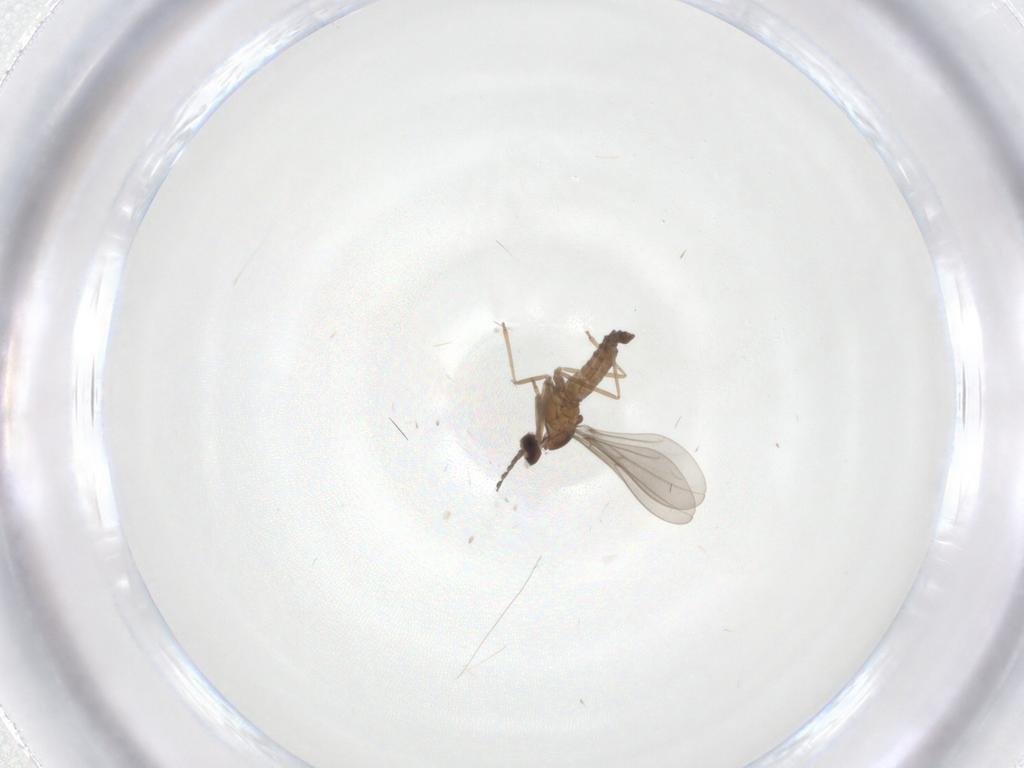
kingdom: Animalia
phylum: Arthropoda
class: Insecta
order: Diptera
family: Cecidomyiidae
